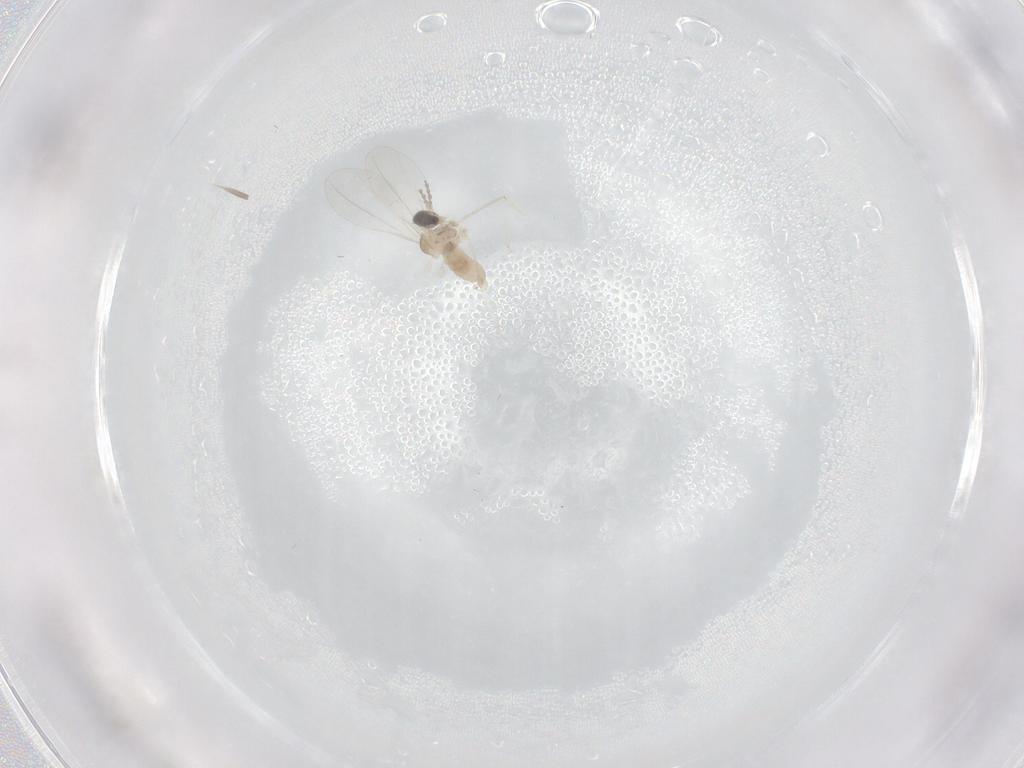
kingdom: Animalia
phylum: Arthropoda
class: Insecta
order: Diptera
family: Cecidomyiidae
